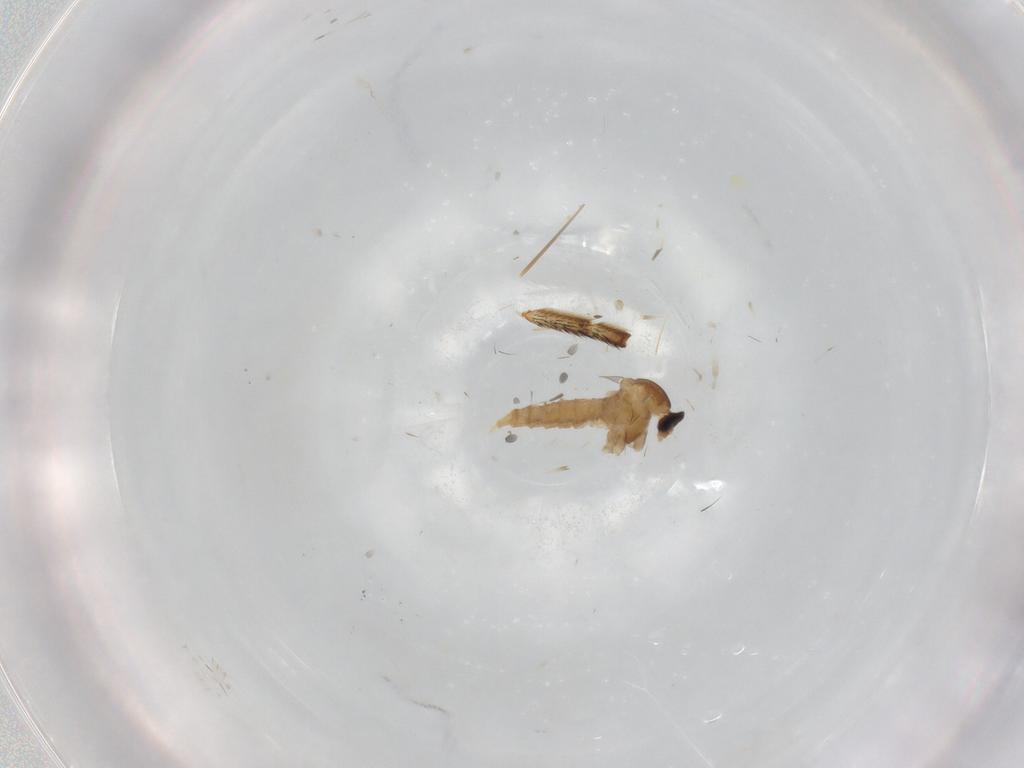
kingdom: Animalia
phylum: Arthropoda
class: Insecta
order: Diptera
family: Cecidomyiidae
